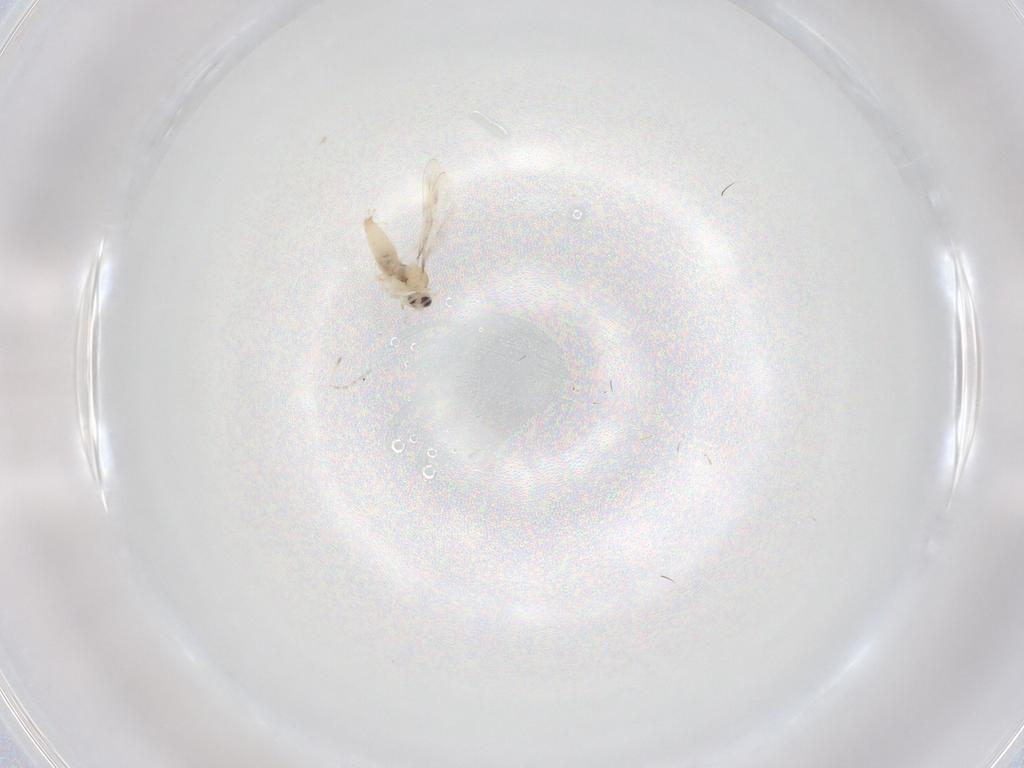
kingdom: Animalia
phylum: Arthropoda
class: Insecta
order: Diptera
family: Cecidomyiidae
